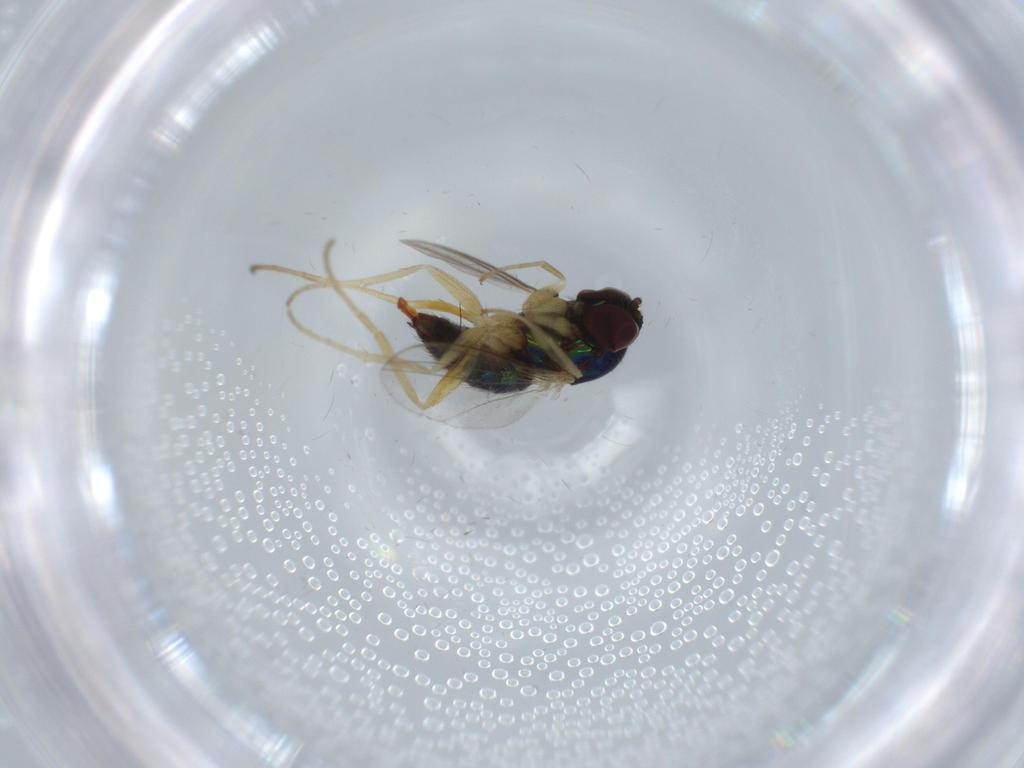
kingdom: Animalia
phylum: Arthropoda
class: Insecta
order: Diptera
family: Dolichopodidae
